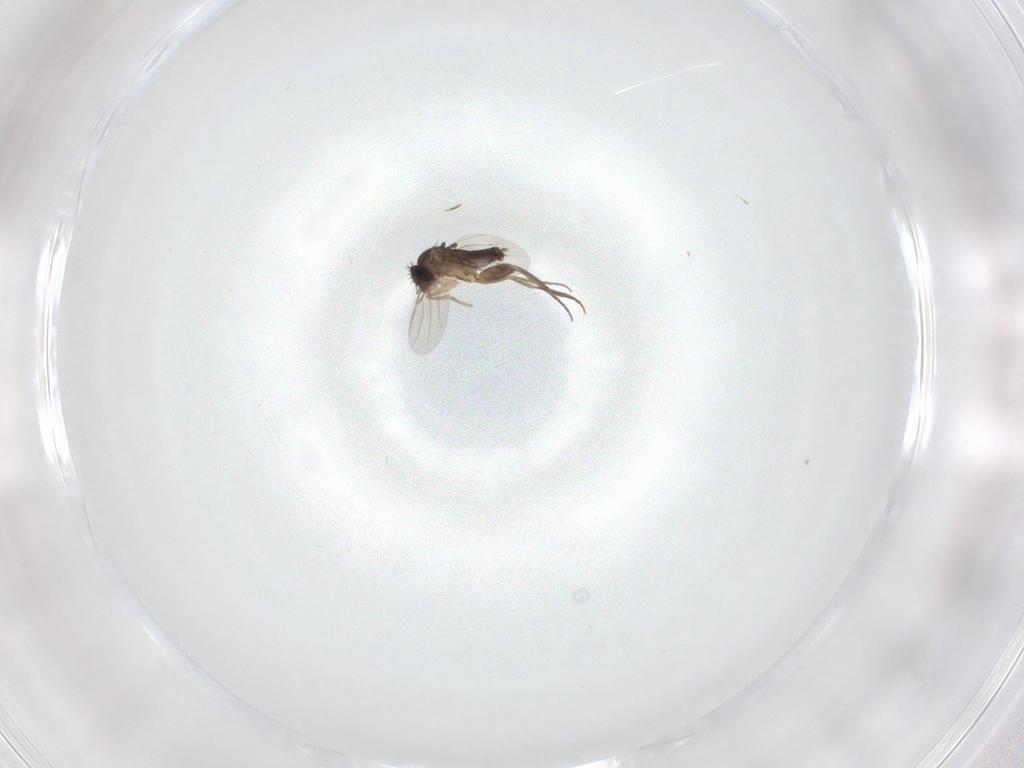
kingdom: Animalia
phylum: Arthropoda
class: Insecta
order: Diptera
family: Phoridae
